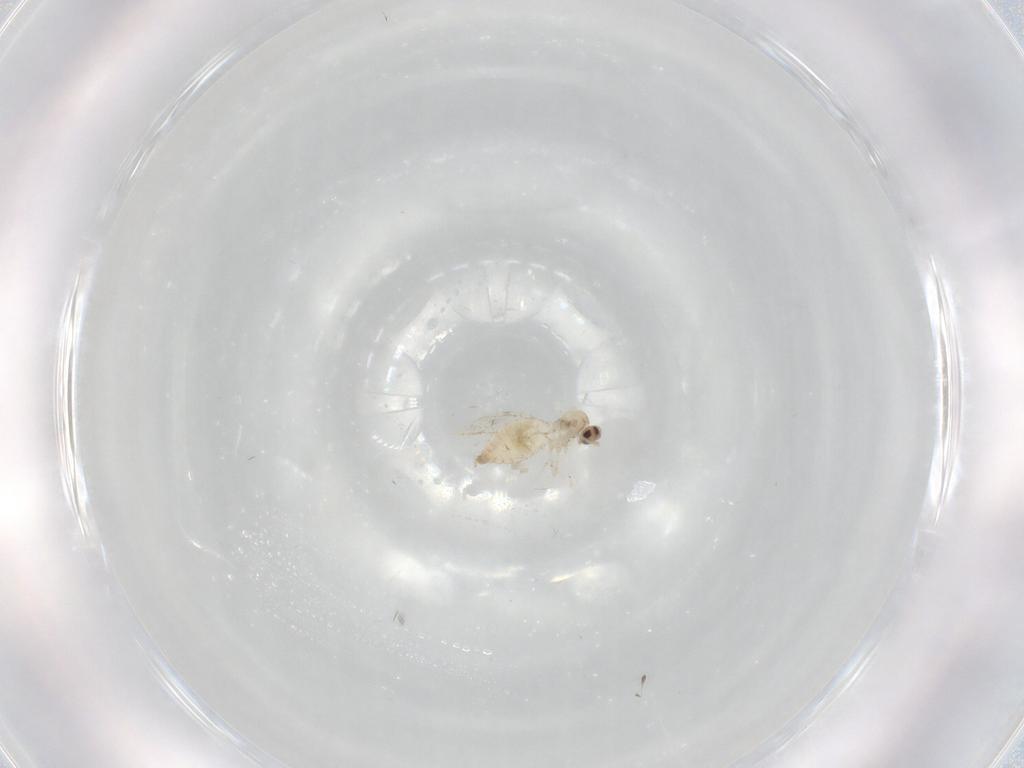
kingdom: Animalia
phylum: Arthropoda
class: Insecta
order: Diptera
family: Cecidomyiidae
